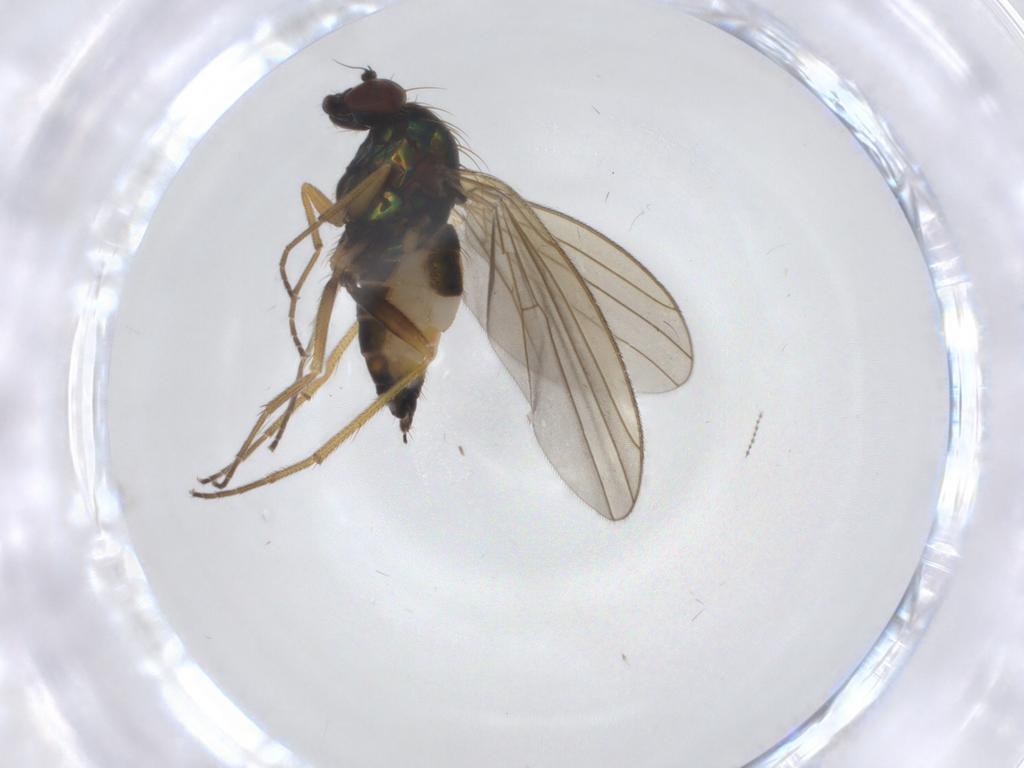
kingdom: Animalia
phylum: Arthropoda
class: Insecta
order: Diptera
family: Dolichopodidae
